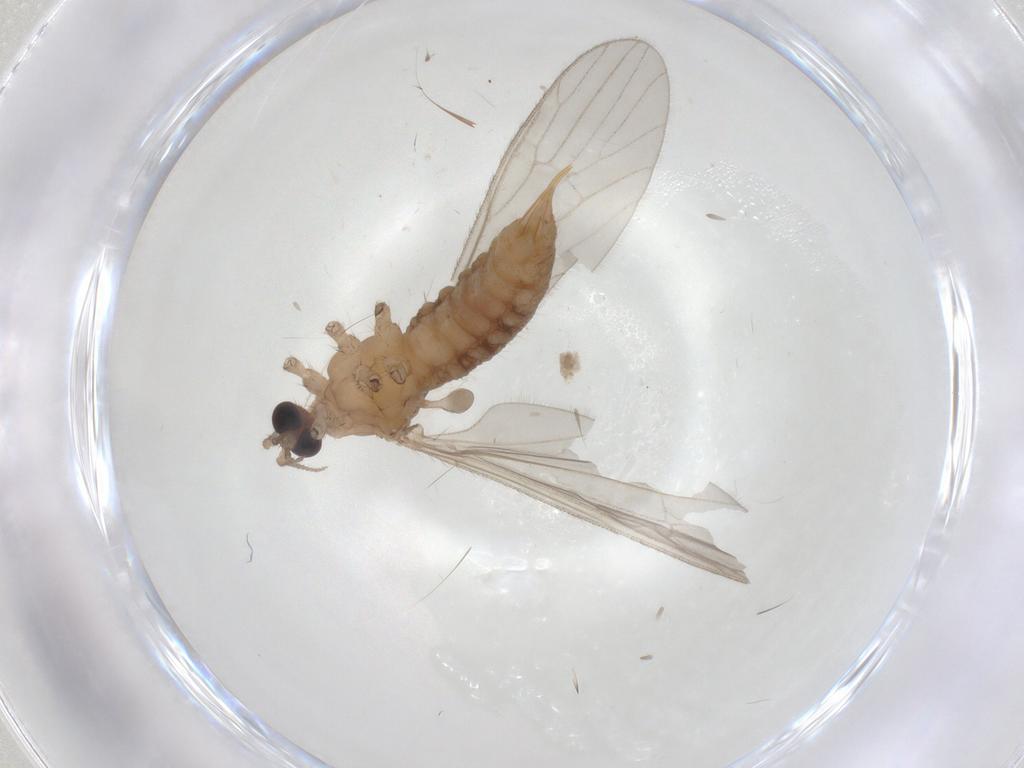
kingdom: Animalia
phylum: Arthropoda
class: Insecta
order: Diptera
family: Limoniidae
